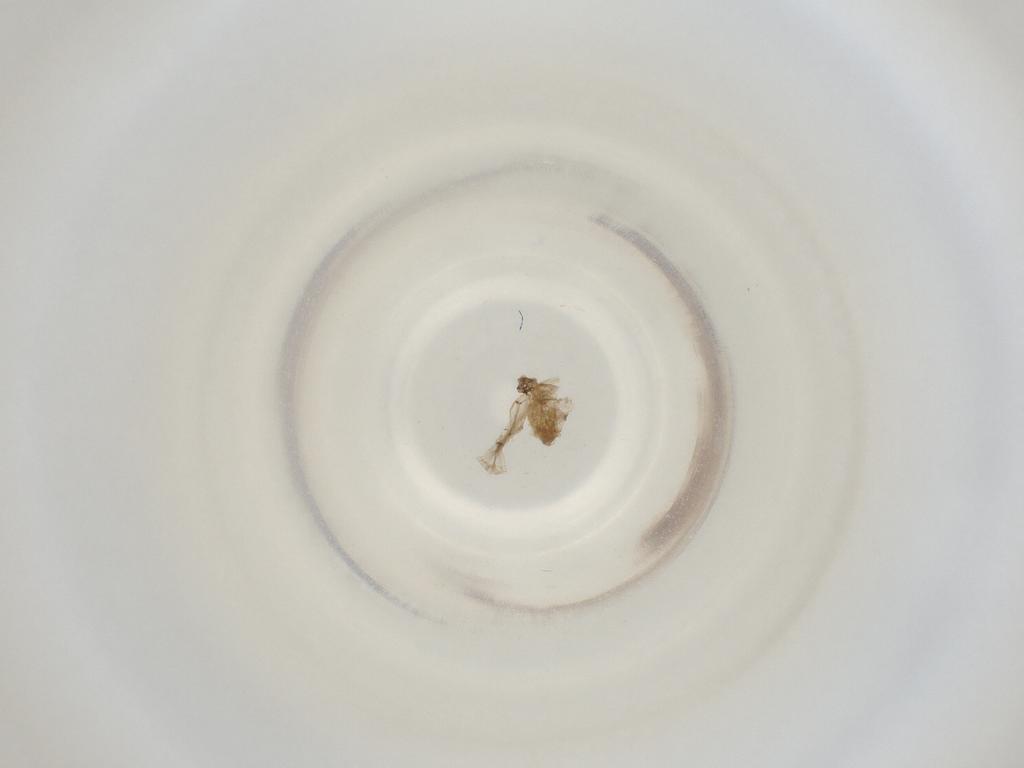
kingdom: Animalia
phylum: Arthropoda
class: Insecta
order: Diptera
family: Cecidomyiidae
